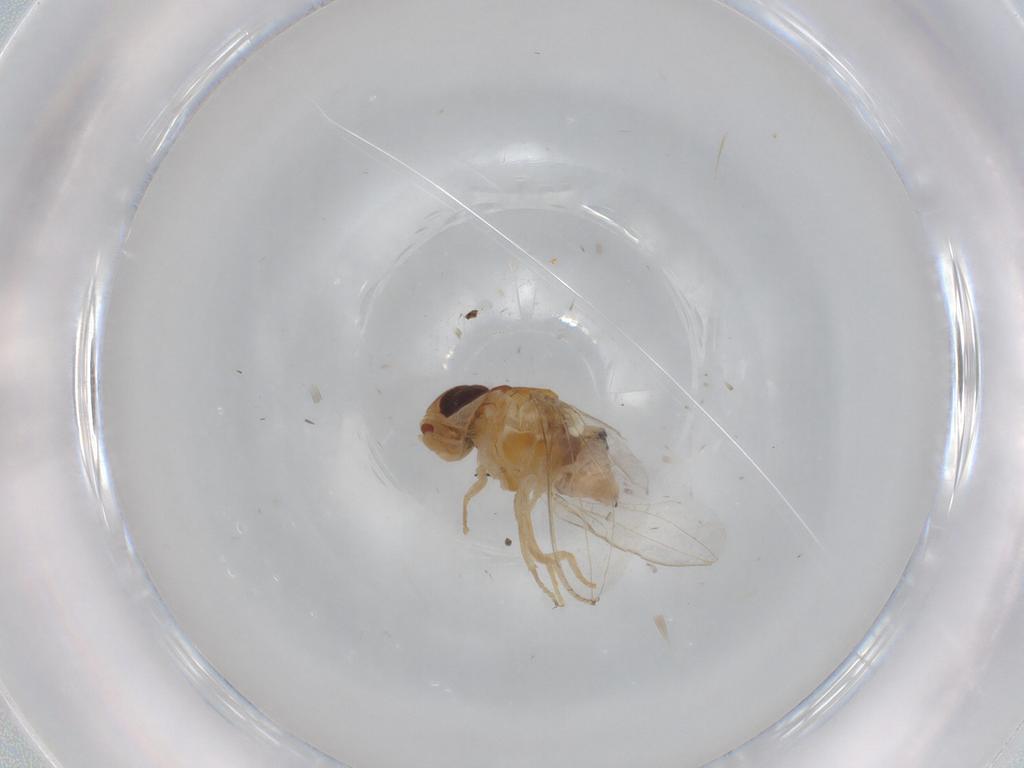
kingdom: Animalia
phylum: Arthropoda
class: Insecta
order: Diptera
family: Asteiidae
